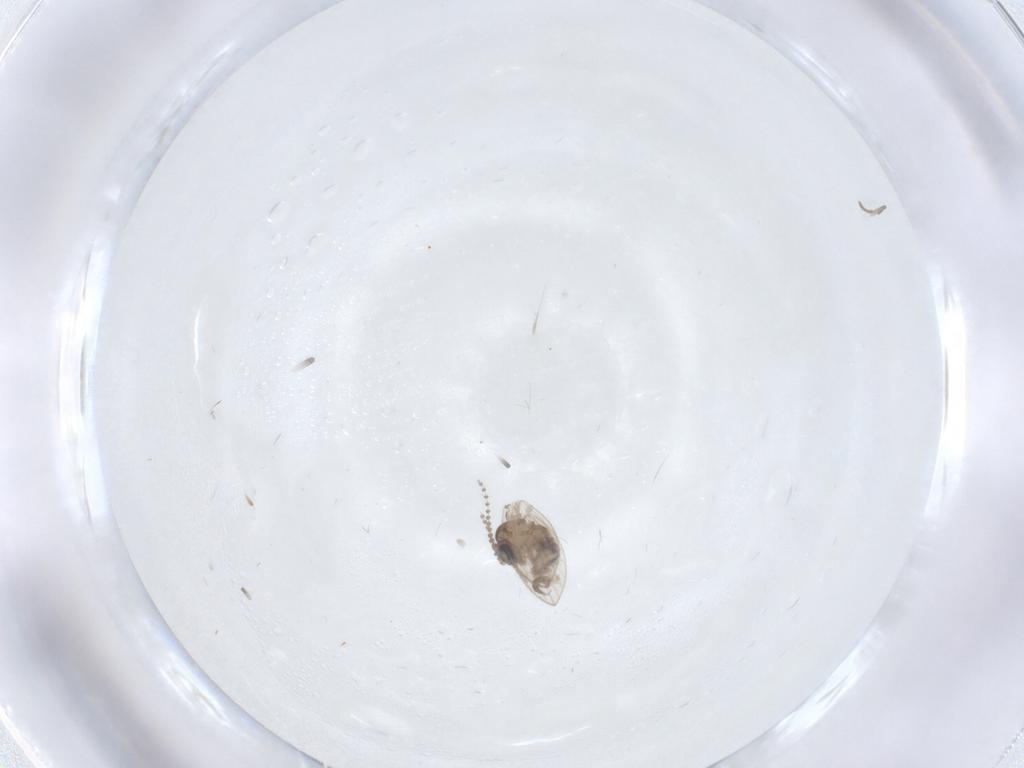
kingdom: Animalia
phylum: Arthropoda
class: Insecta
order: Diptera
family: Psychodidae
